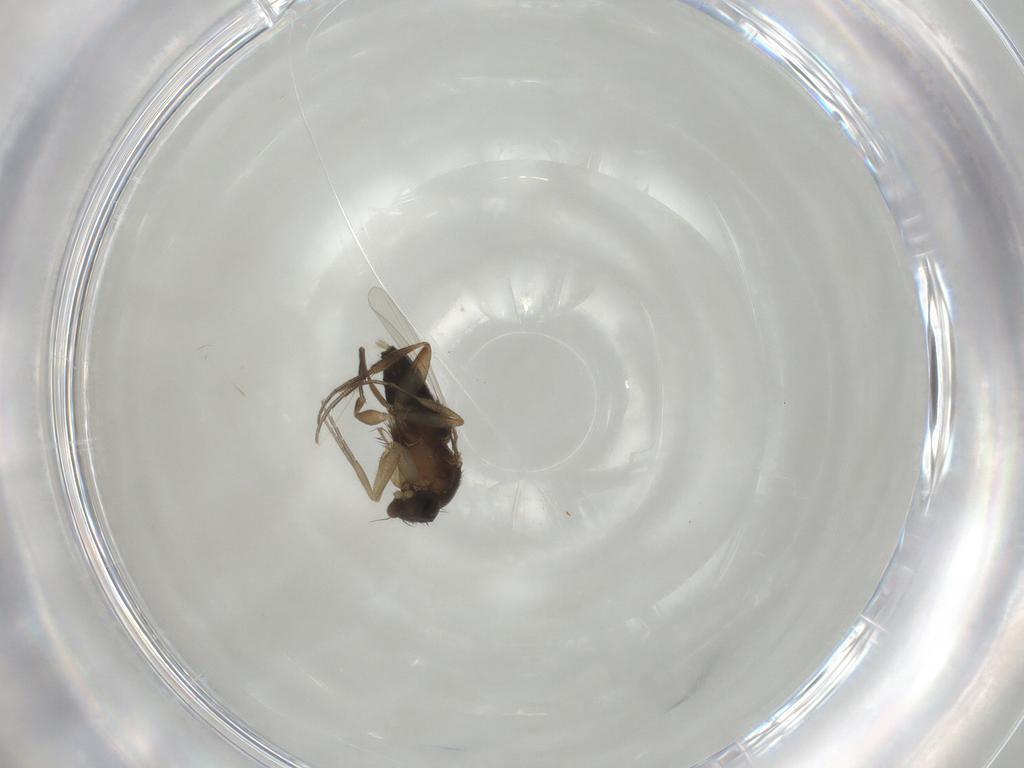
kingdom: Animalia
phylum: Arthropoda
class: Insecta
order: Diptera
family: Phoridae
